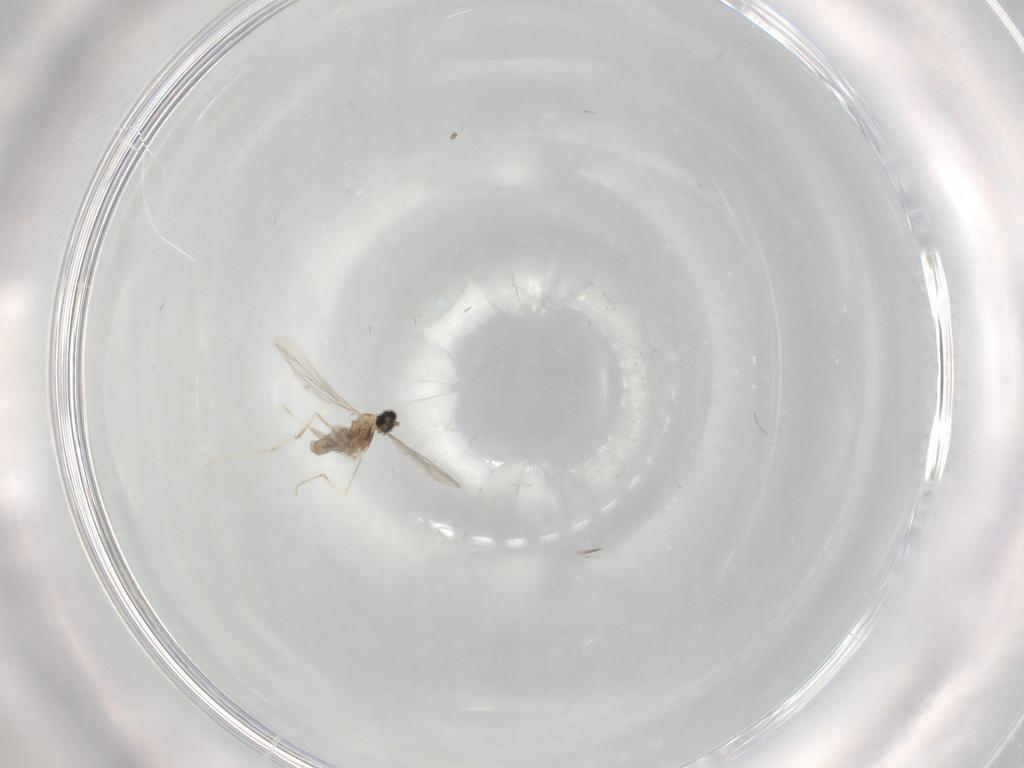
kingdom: Animalia
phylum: Arthropoda
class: Insecta
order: Diptera
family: Cecidomyiidae
